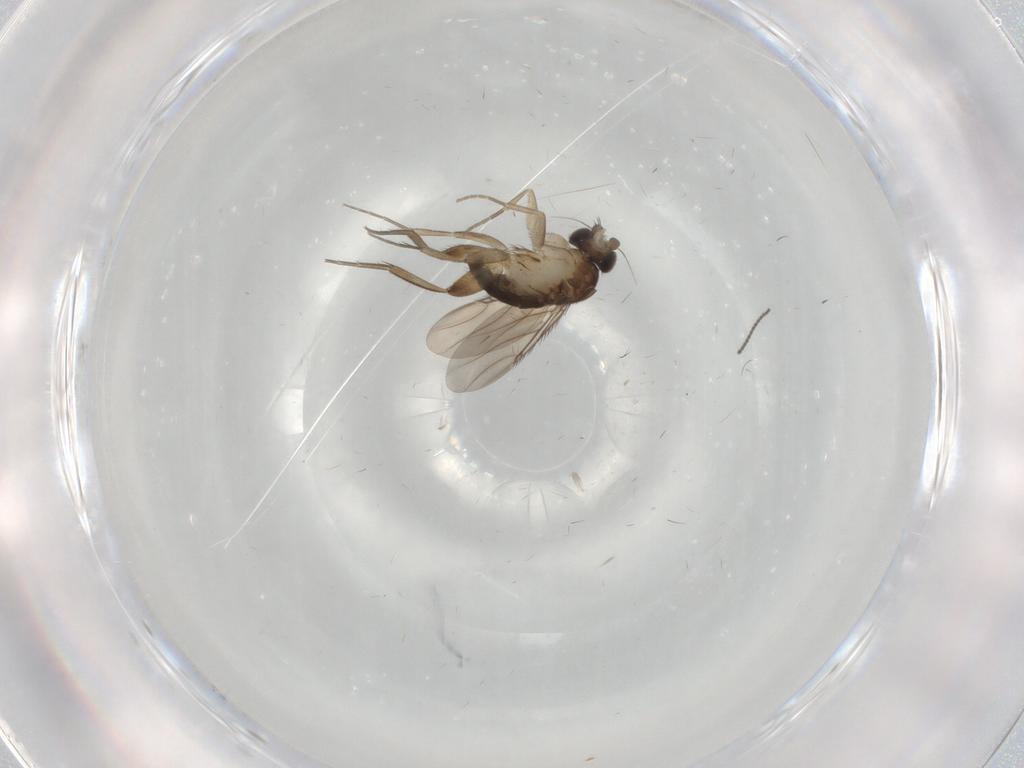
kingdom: Animalia
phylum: Arthropoda
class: Insecta
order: Diptera
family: Phoridae
